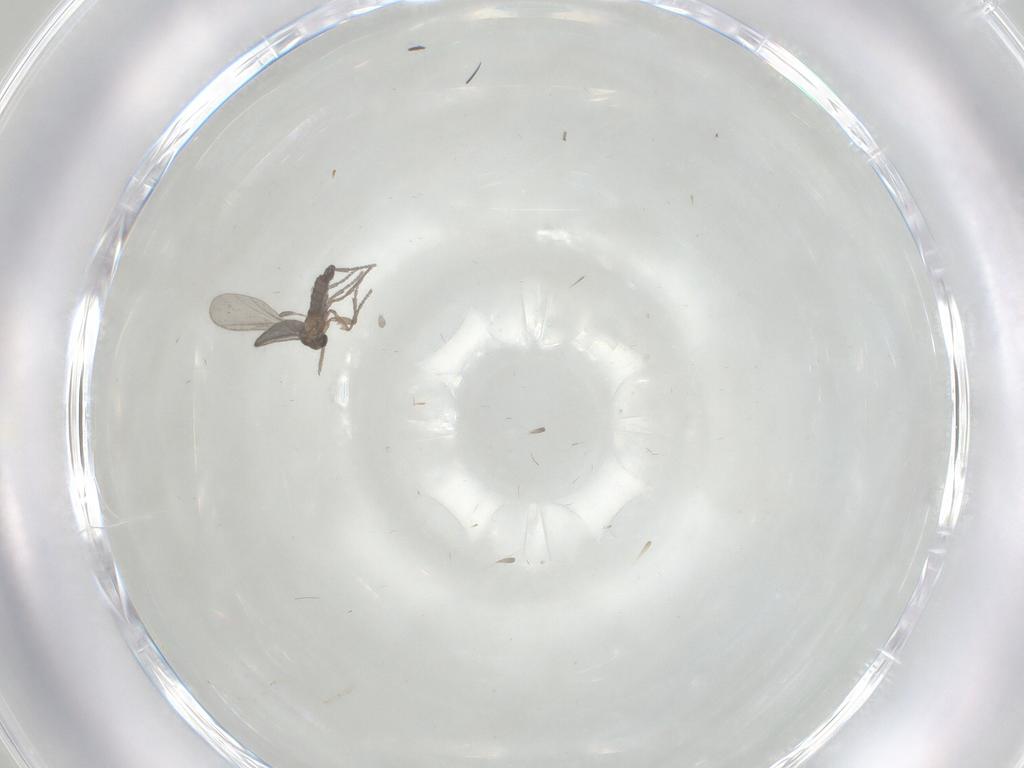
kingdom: Animalia
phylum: Arthropoda
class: Insecta
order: Diptera
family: Sciaridae
